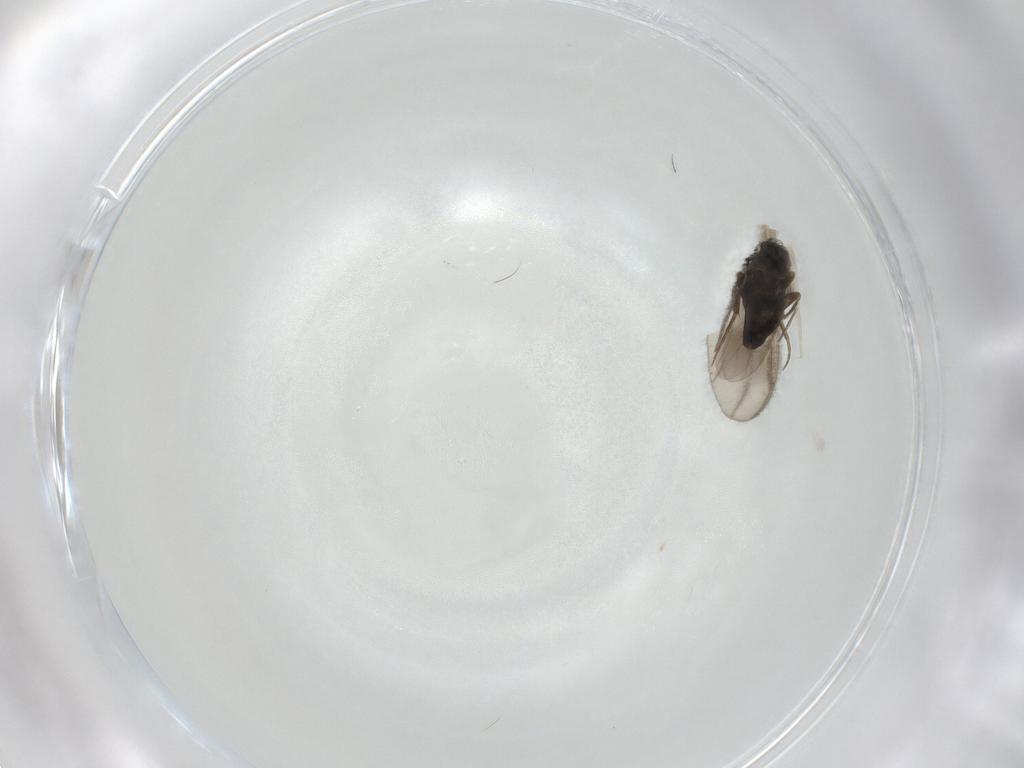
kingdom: Animalia
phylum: Arthropoda
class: Insecta
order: Diptera
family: Phoridae
